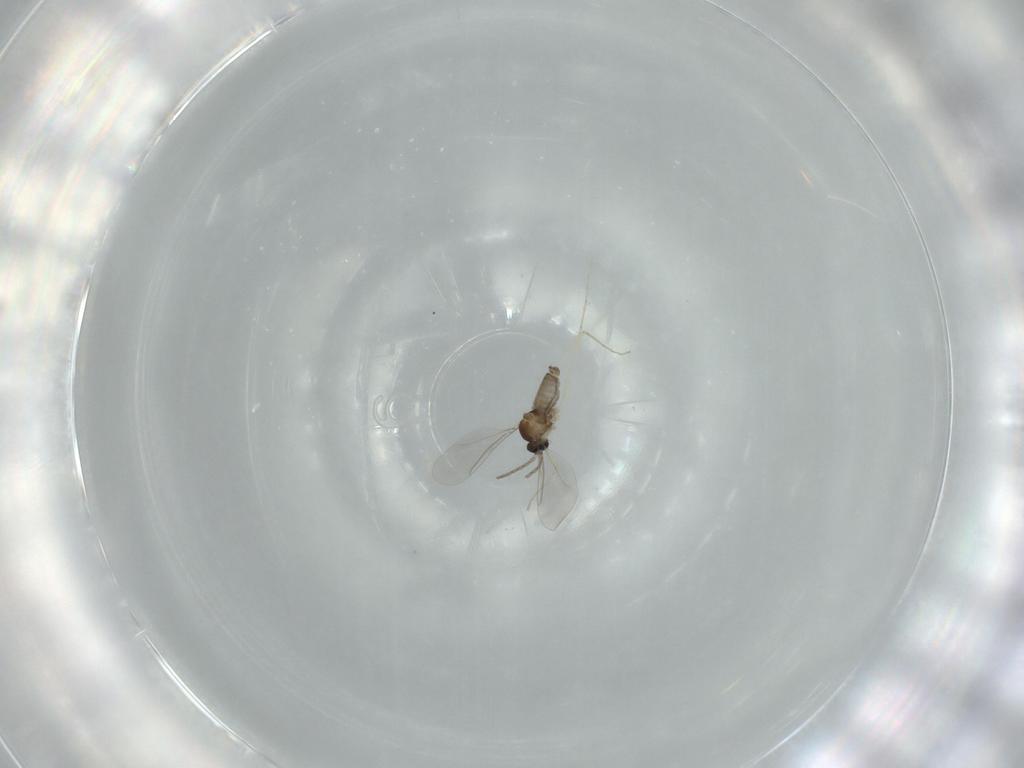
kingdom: Animalia
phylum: Arthropoda
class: Insecta
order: Diptera
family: Cecidomyiidae
